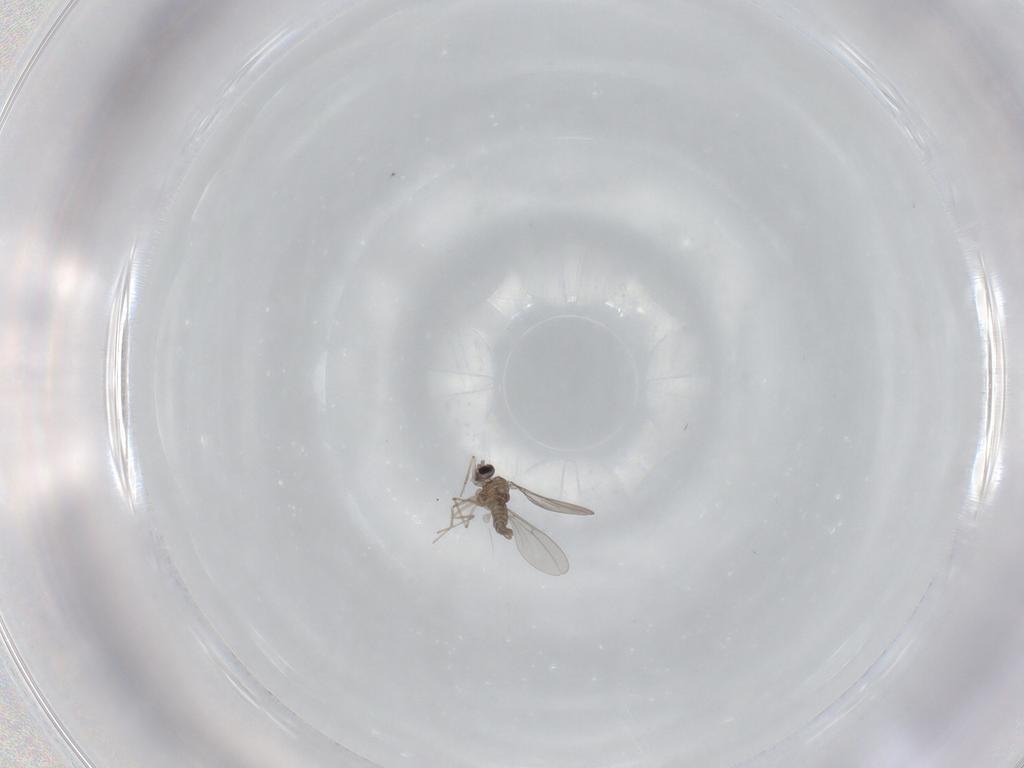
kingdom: Animalia
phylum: Arthropoda
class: Insecta
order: Diptera
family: Cecidomyiidae
